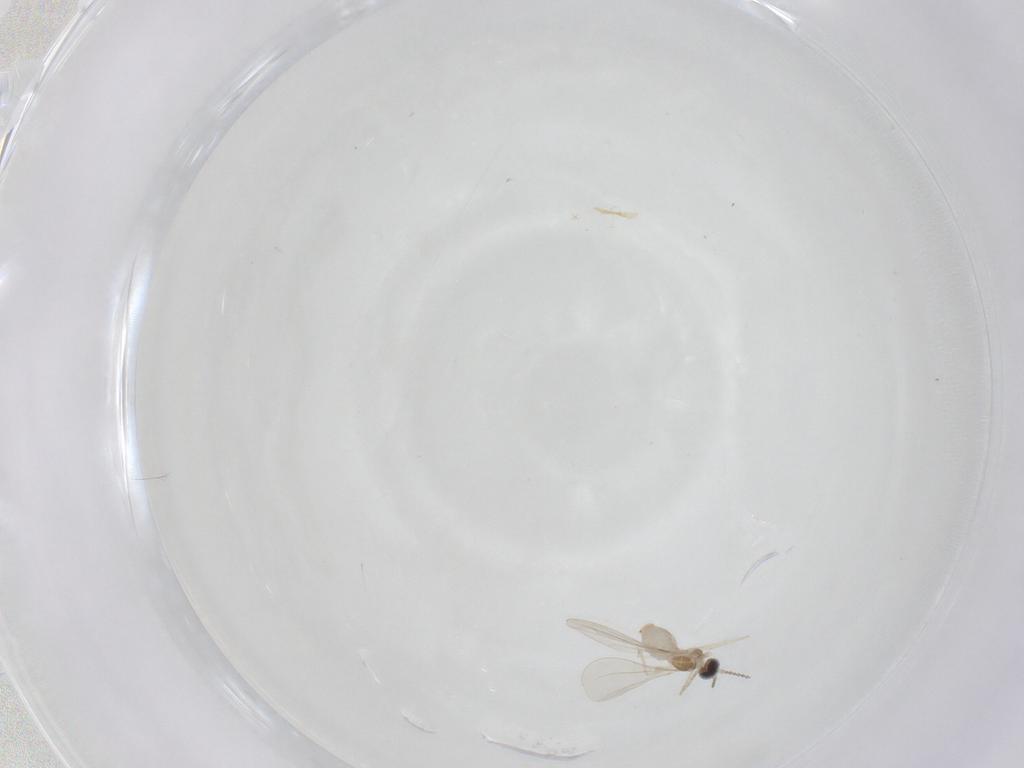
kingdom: Animalia
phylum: Arthropoda
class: Insecta
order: Diptera
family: Cecidomyiidae
